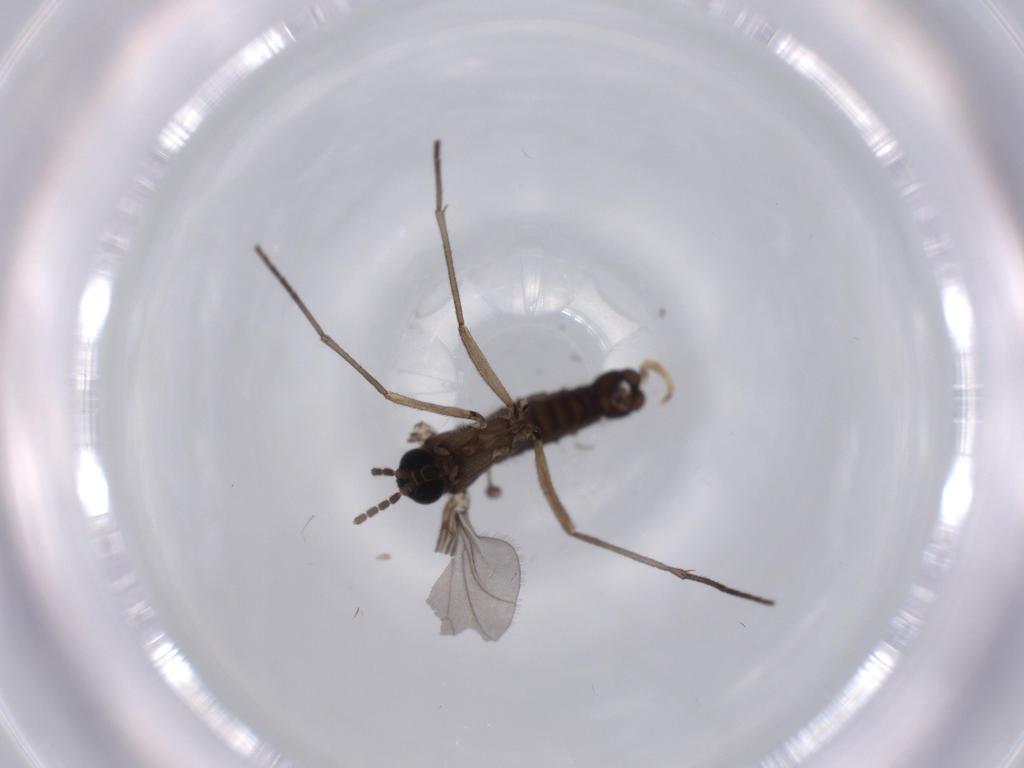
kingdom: Animalia
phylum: Arthropoda
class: Insecta
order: Diptera
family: Sciaridae
